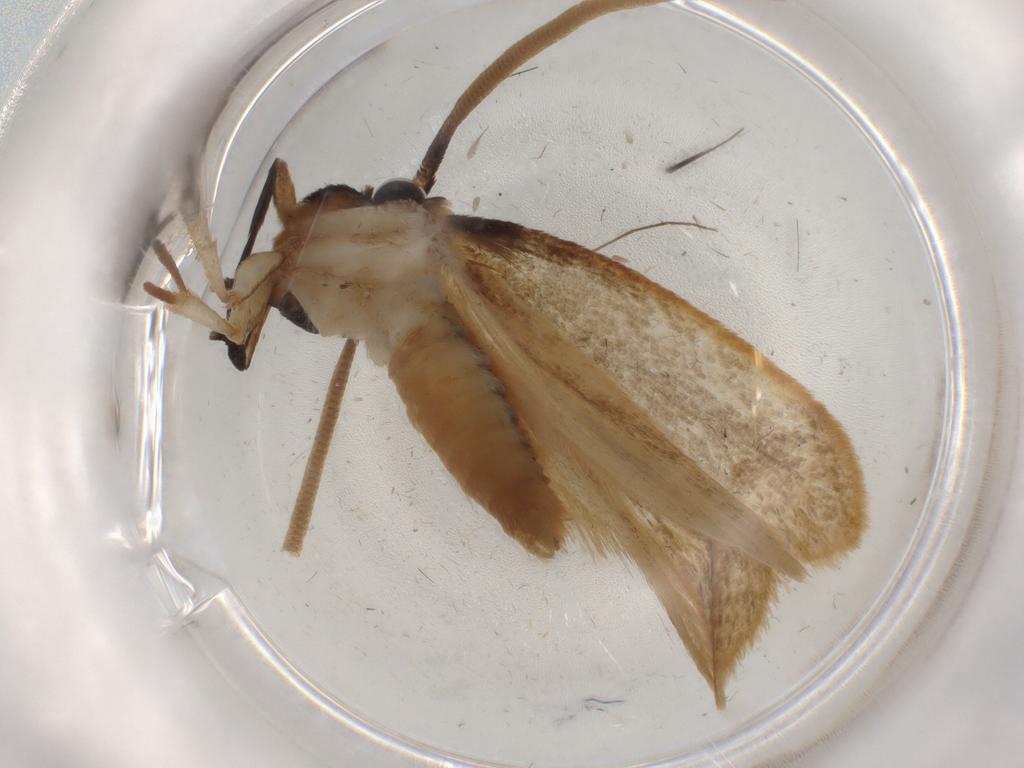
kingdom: Animalia
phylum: Arthropoda
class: Insecta
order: Lepidoptera
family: Tineidae
